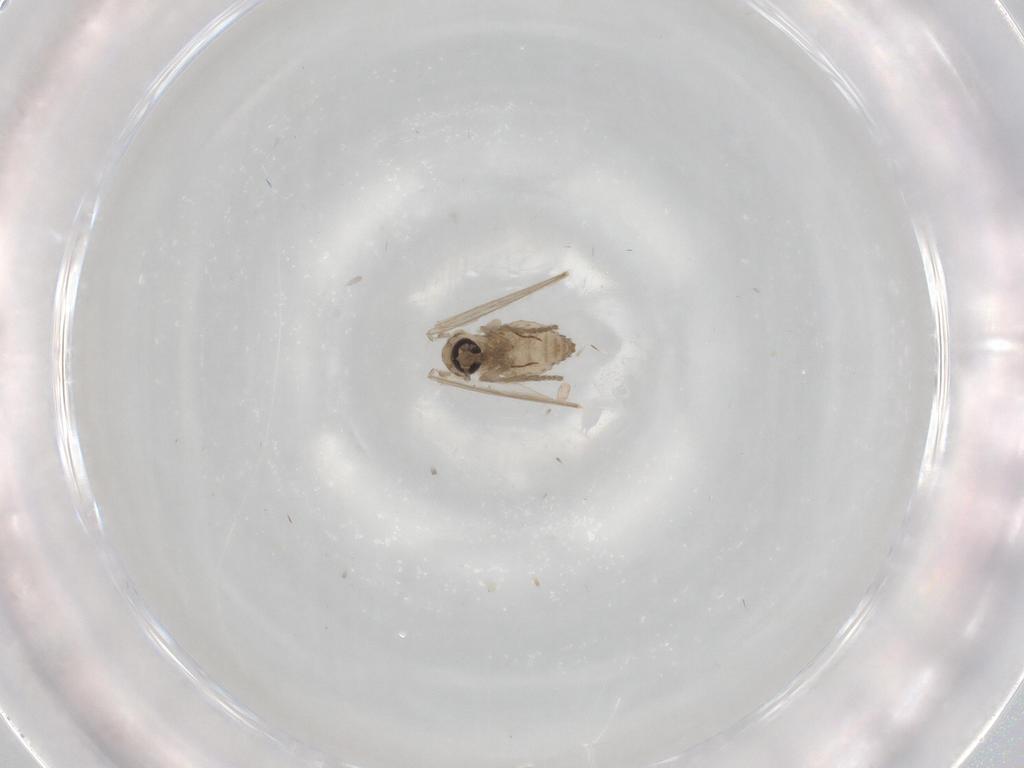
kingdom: Animalia
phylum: Arthropoda
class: Insecta
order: Diptera
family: Psychodidae
